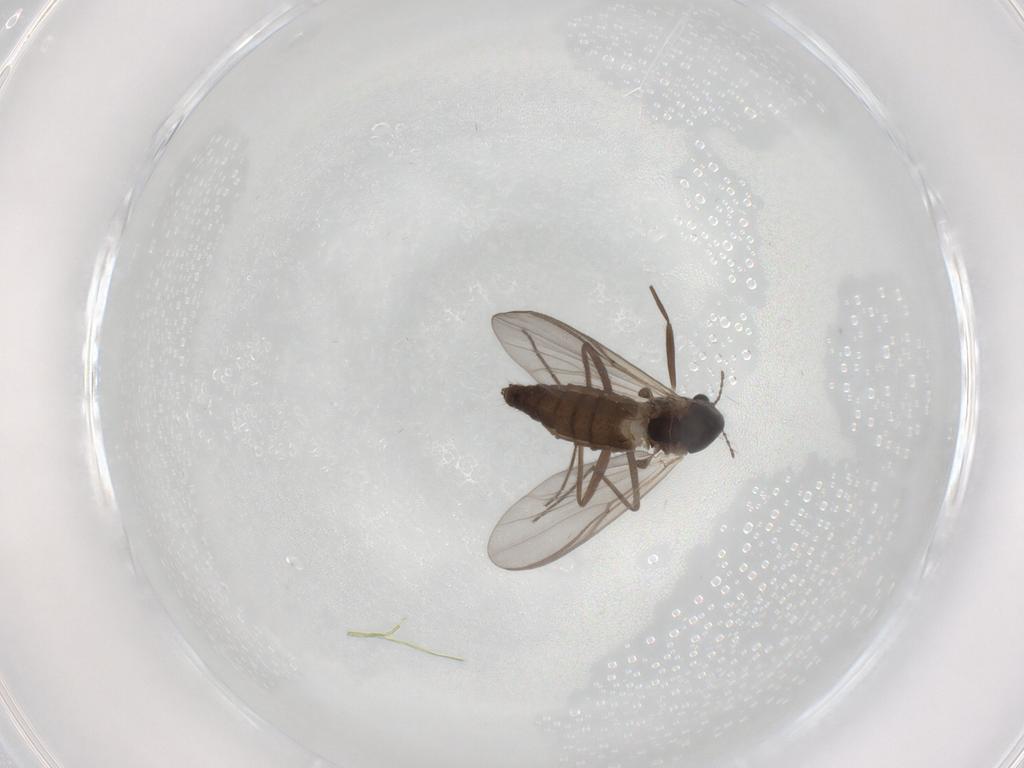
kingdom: Animalia
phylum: Arthropoda
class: Insecta
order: Diptera
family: Chironomidae
